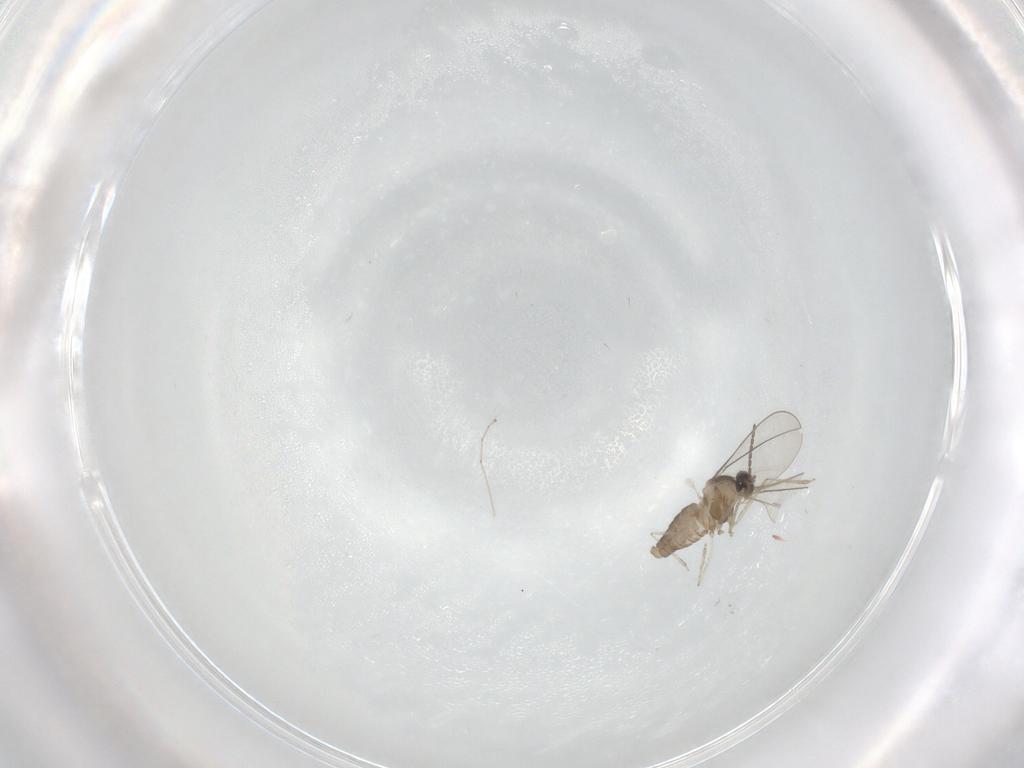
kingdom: Animalia
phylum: Arthropoda
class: Insecta
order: Diptera
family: Cecidomyiidae
